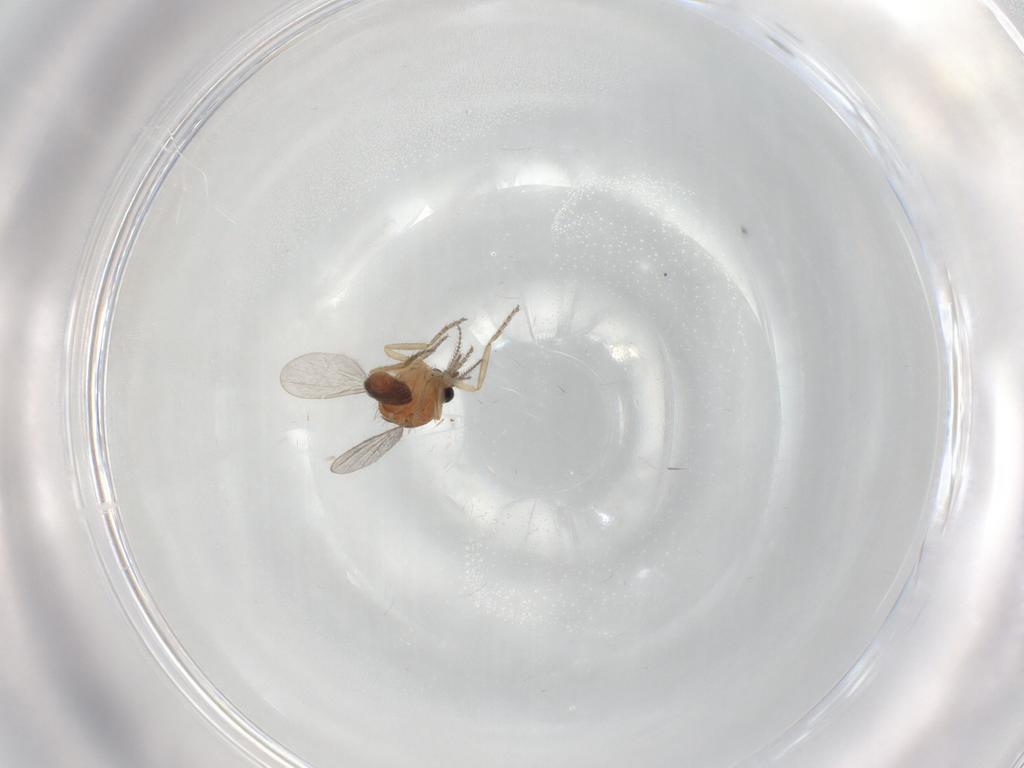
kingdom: Animalia
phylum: Arthropoda
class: Insecta
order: Diptera
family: Ceratopogonidae
